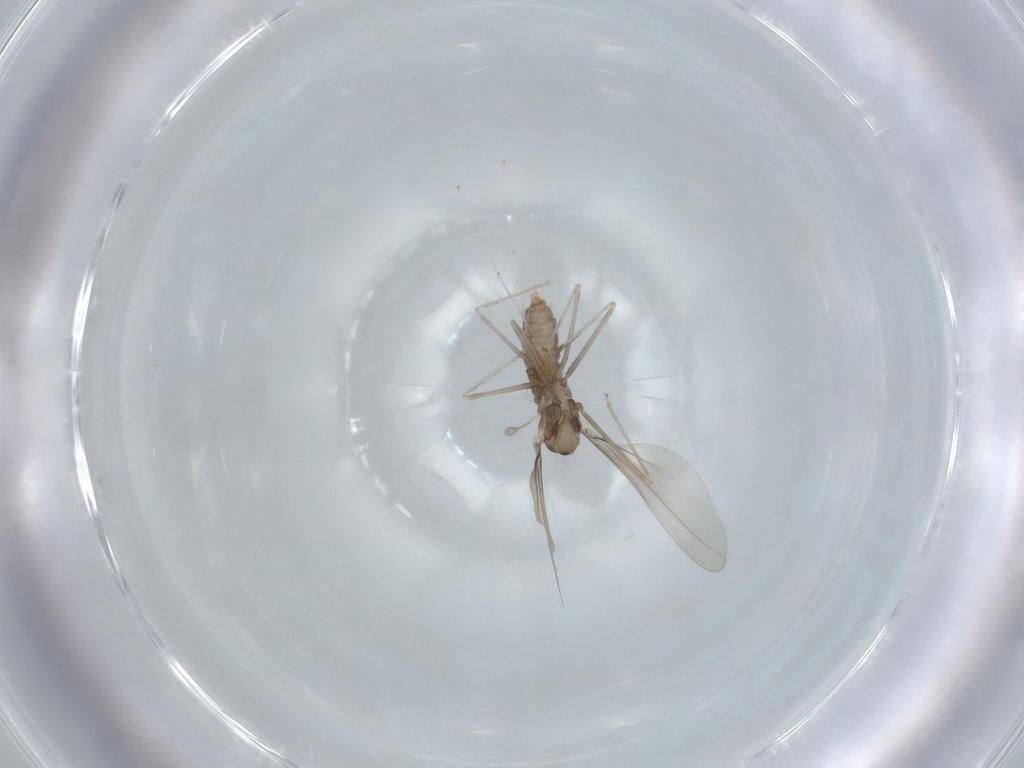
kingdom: Animalia
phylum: Arthropoda
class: Insecta
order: Diptera
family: Cecidomyiidae
